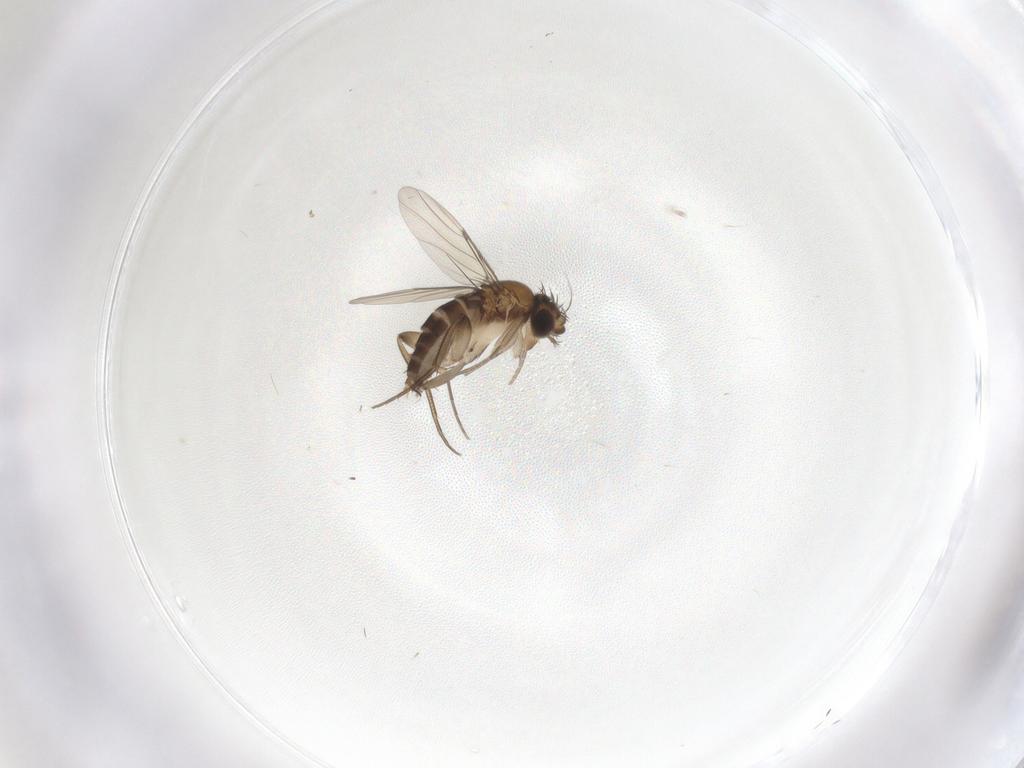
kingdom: Animalia
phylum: Arthropoda
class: Insecta
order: Diptera
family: Phoridae
